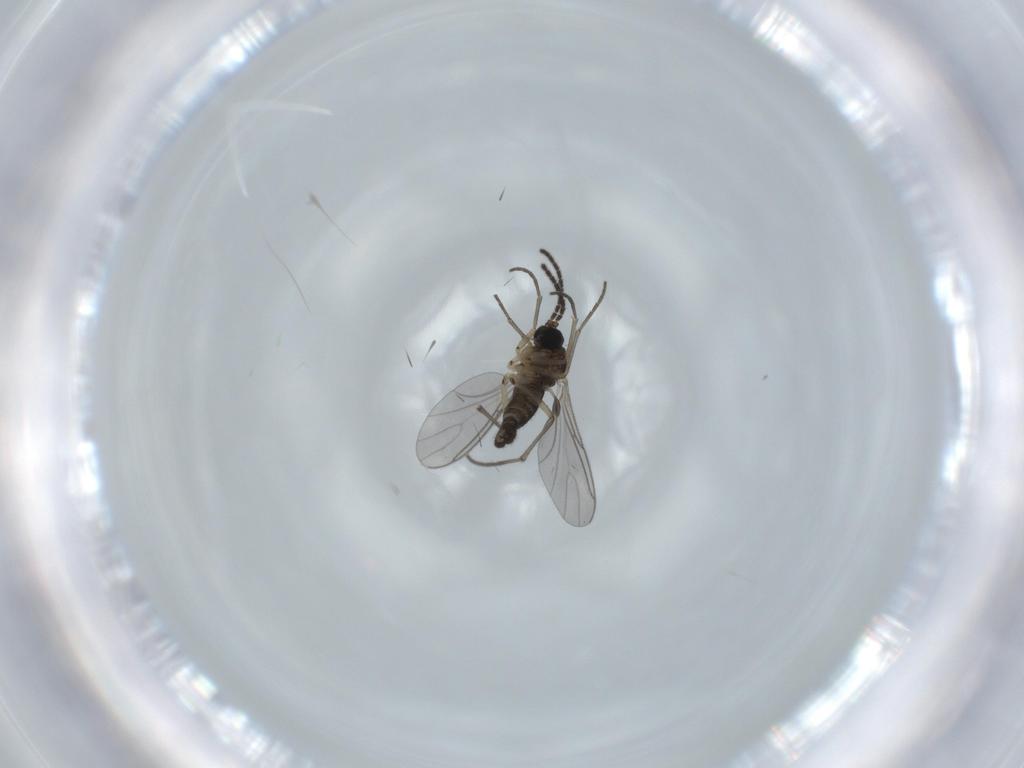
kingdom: Animalia
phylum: Arthropoda
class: Insecta
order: Diptera
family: Sciaridae
